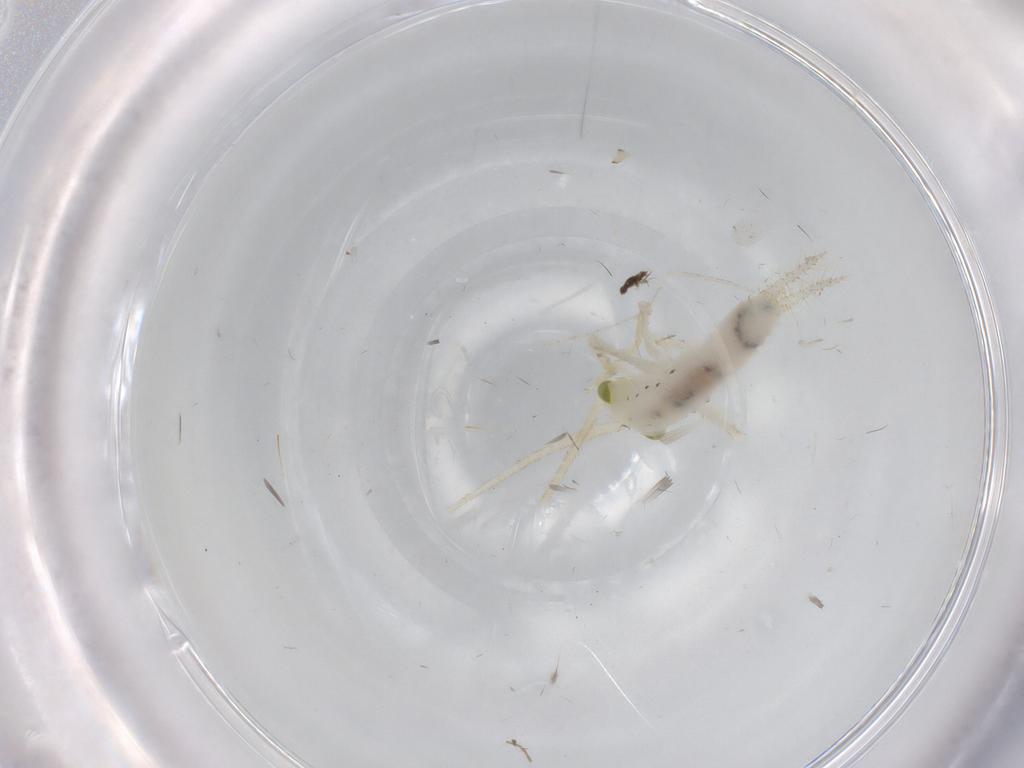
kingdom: Animalia
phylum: Arthropoda
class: Insecta
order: Orthoptera
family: Trigonidiidae
